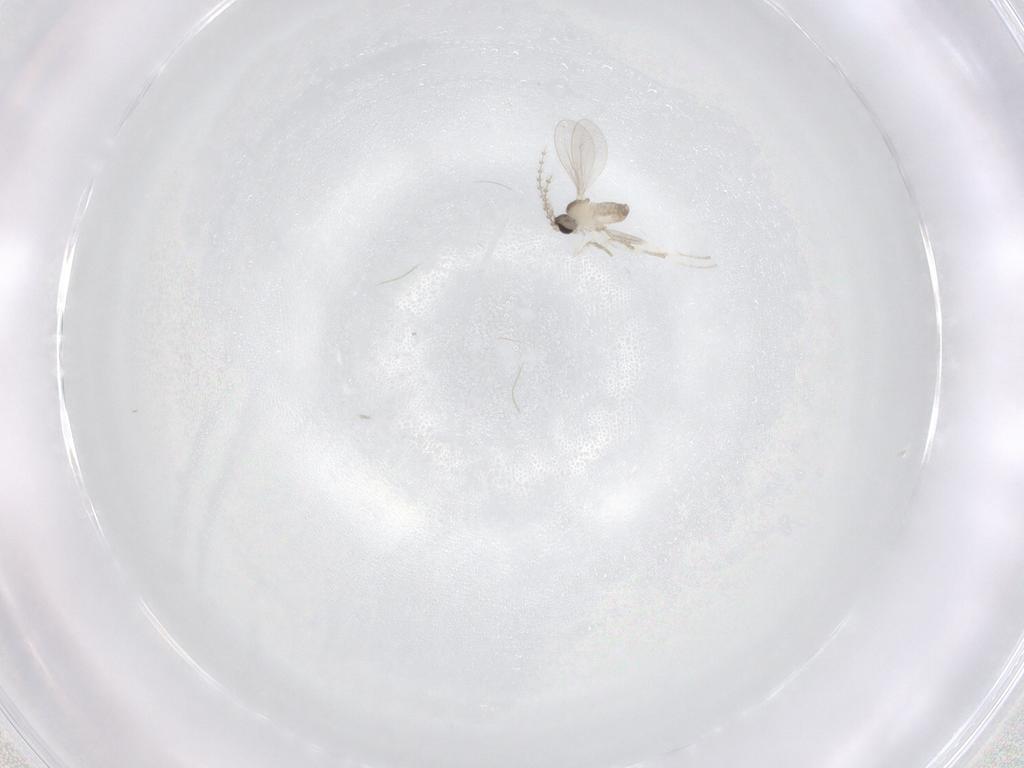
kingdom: Animalia
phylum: Arthropoda
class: Insecta
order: Diptera
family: Cecidomyiidae
